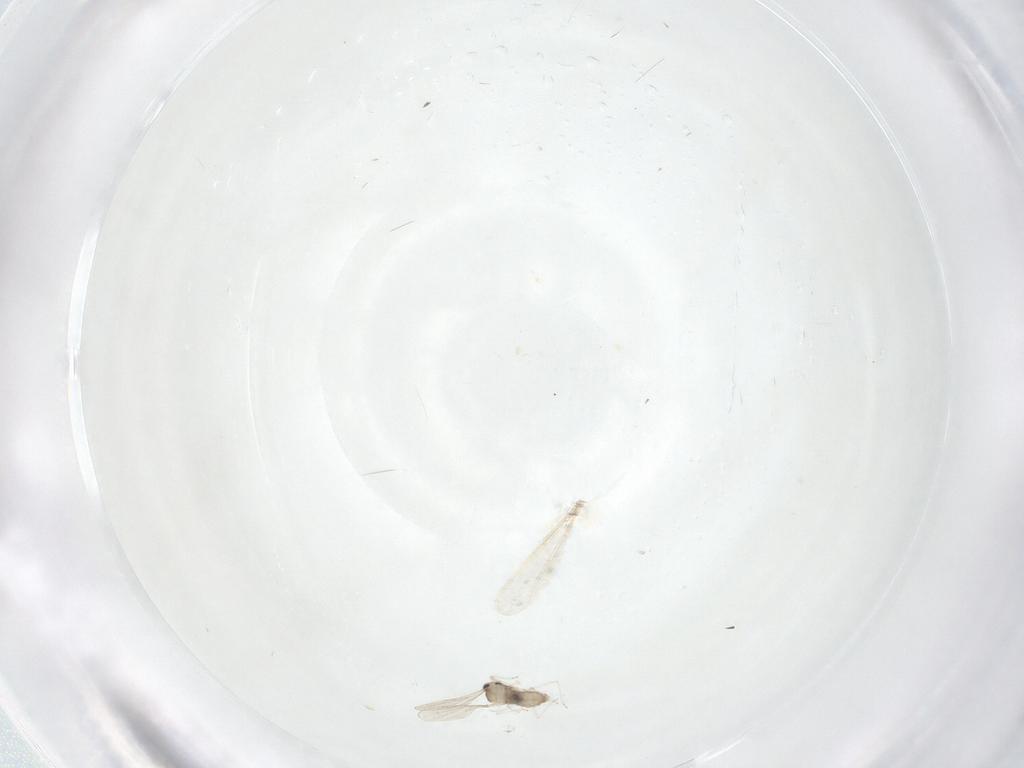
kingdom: Animalia
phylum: Arthropoda
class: Insecta
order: Diptera
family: Cecidomyiidae
